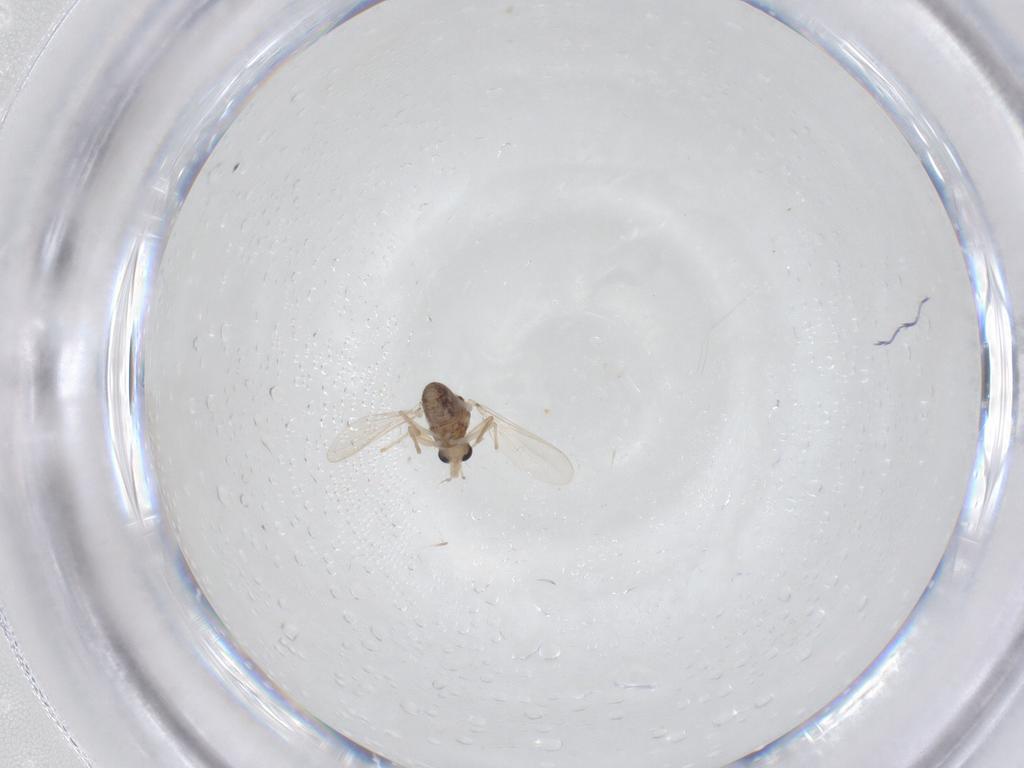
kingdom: Animalia
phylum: Arthropoda
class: Insecta
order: Diptera
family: Chironomidae
